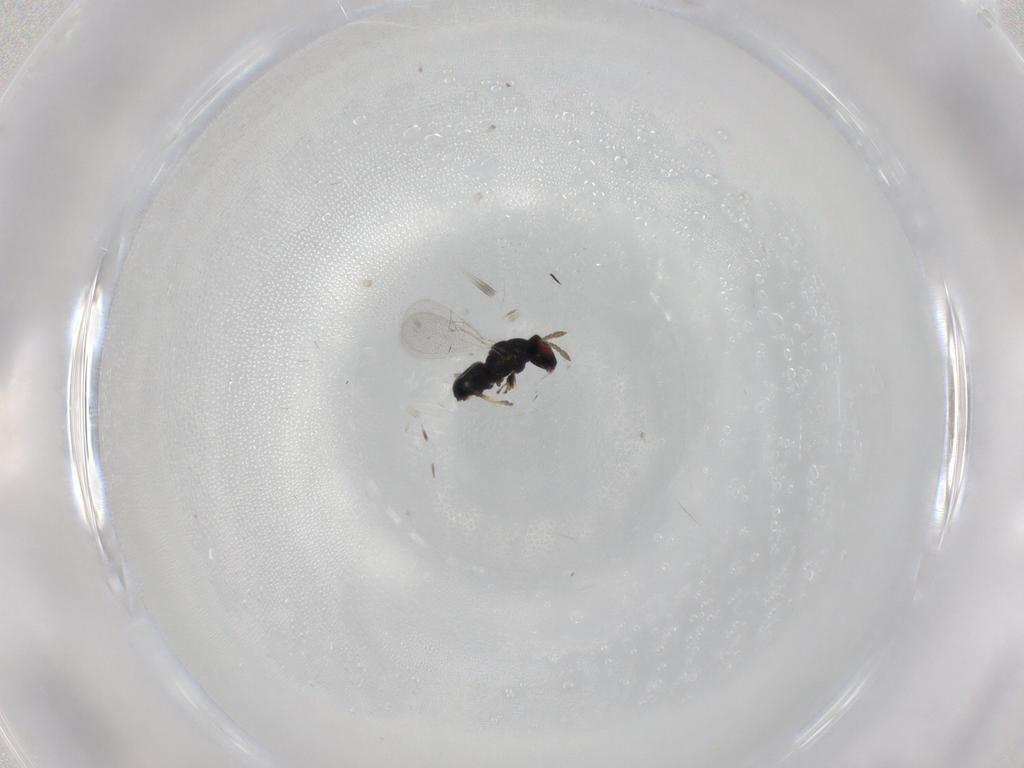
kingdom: Animalia
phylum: Arthropoda
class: Insecta
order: Hymenoptera
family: Eulophidae
